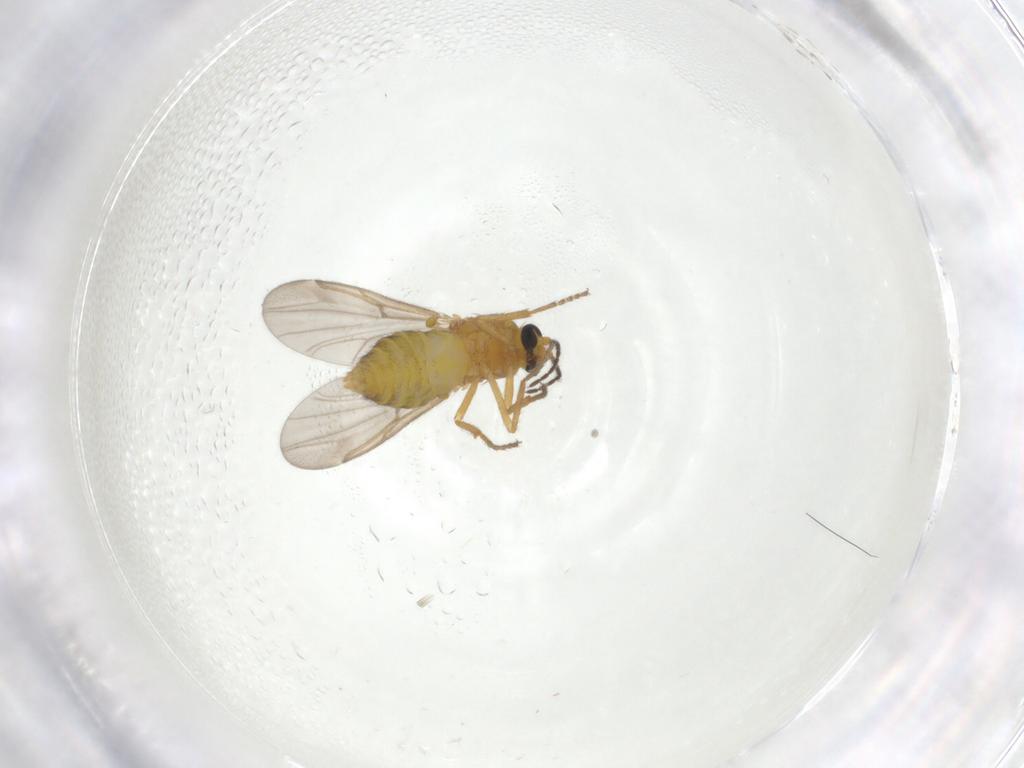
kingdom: Animalia
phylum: Arthropoda
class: Insecta
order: Diptera
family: Ceratopogonidae
